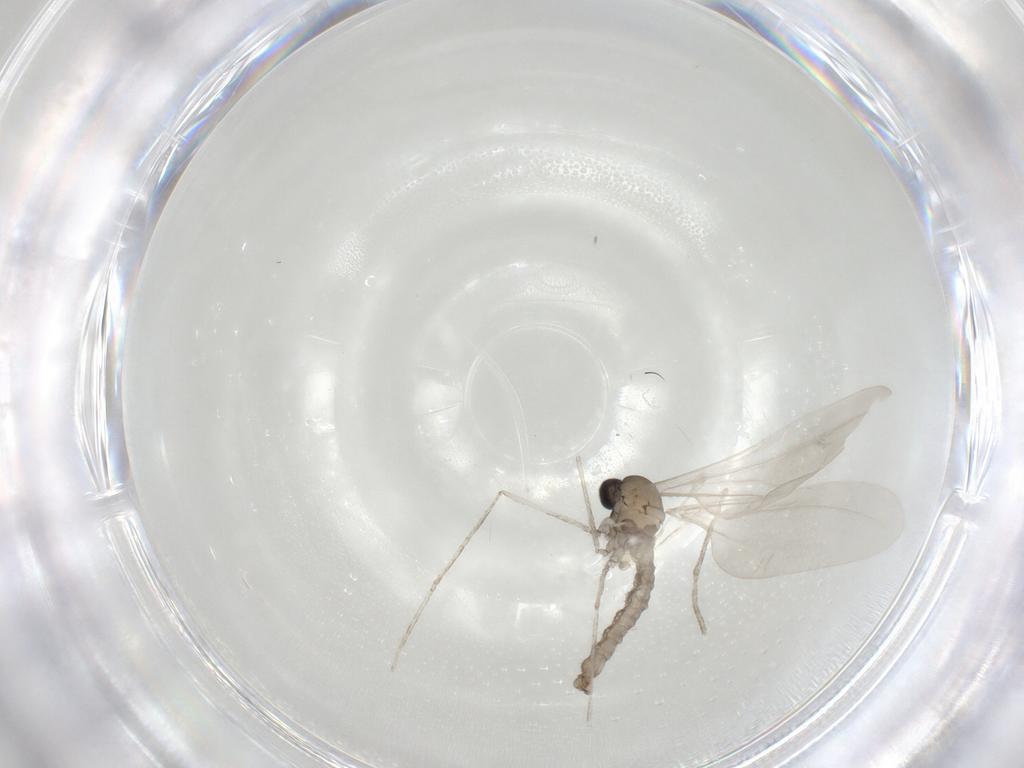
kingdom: Animalia
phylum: Arthropoda
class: Insecta
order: Diptera
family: Cecidomyiidae
